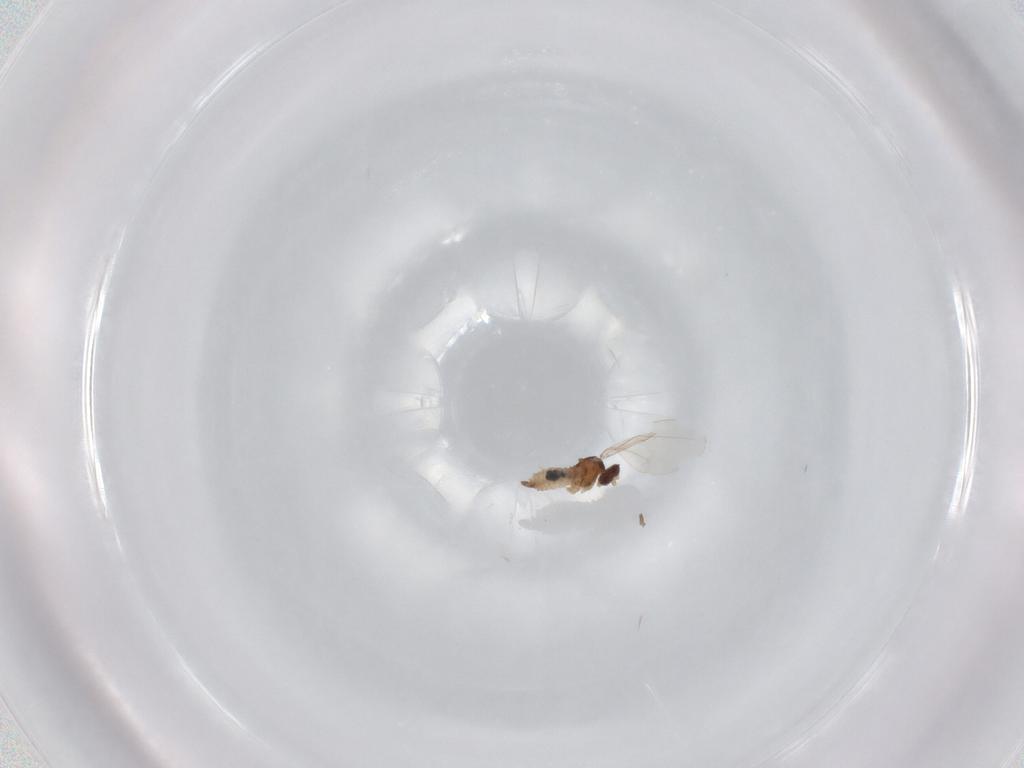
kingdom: Animalia
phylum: Arthropoda
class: Insecta
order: Diptera
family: Cecidomyiidae
